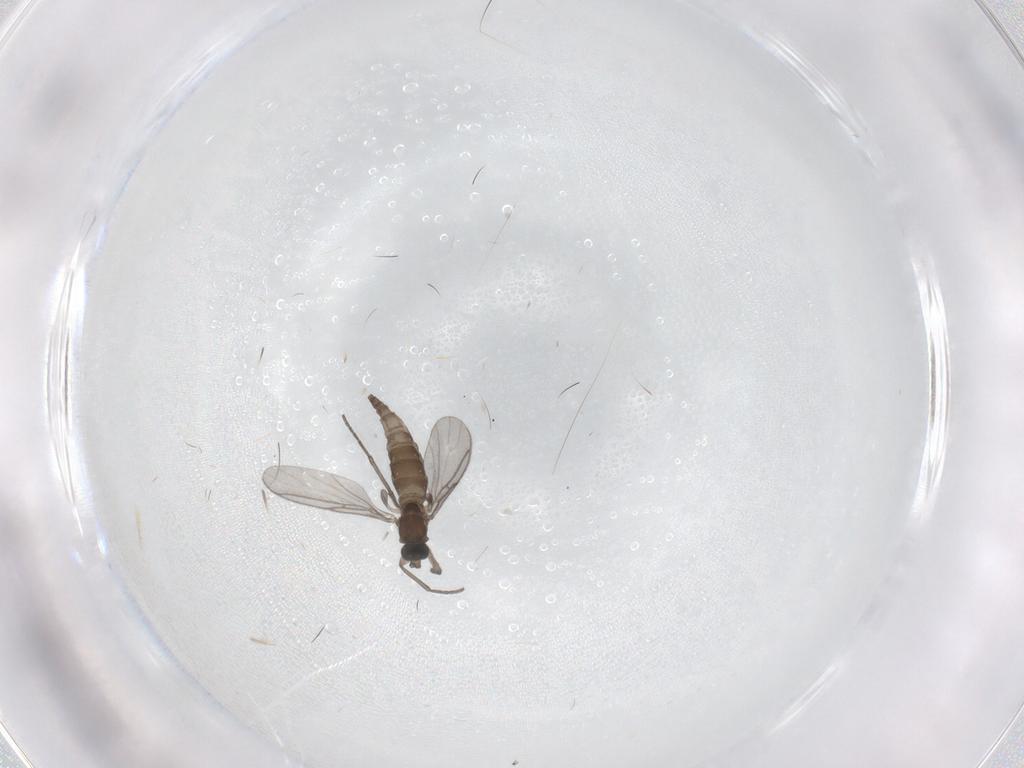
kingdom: Animalia
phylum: Arthropoda
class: Insecta
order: Diptera
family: Sciaridae
